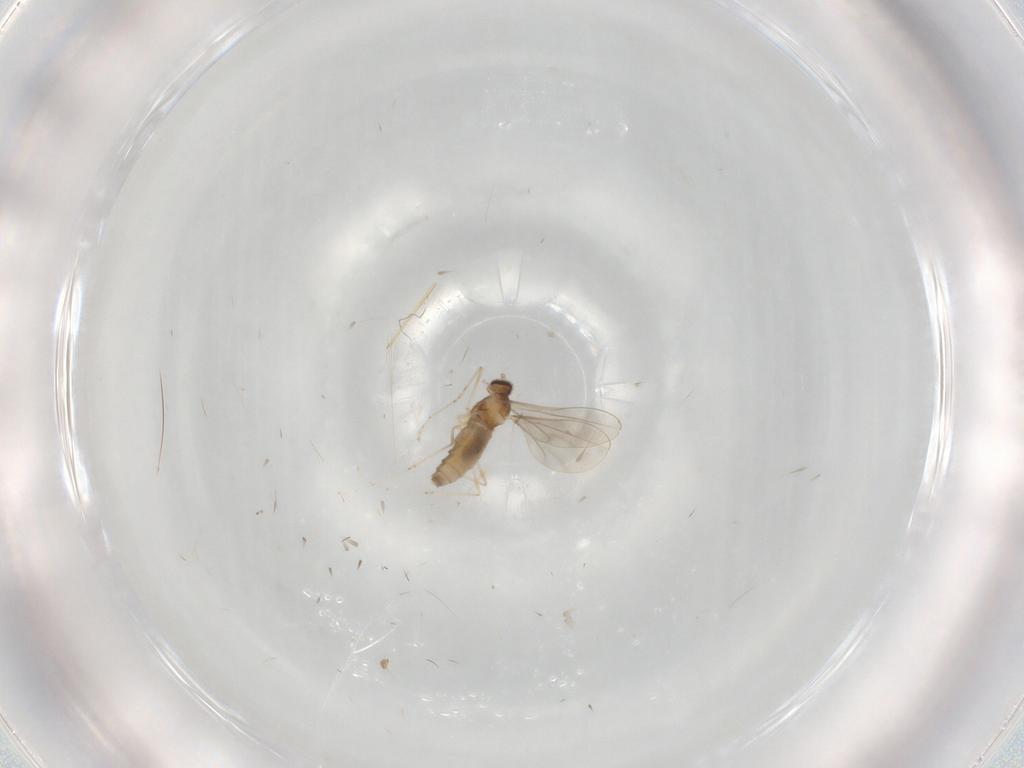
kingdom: Animalia
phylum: Arthropoda
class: Insecta
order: Diptera
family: Cecidomyiidae
